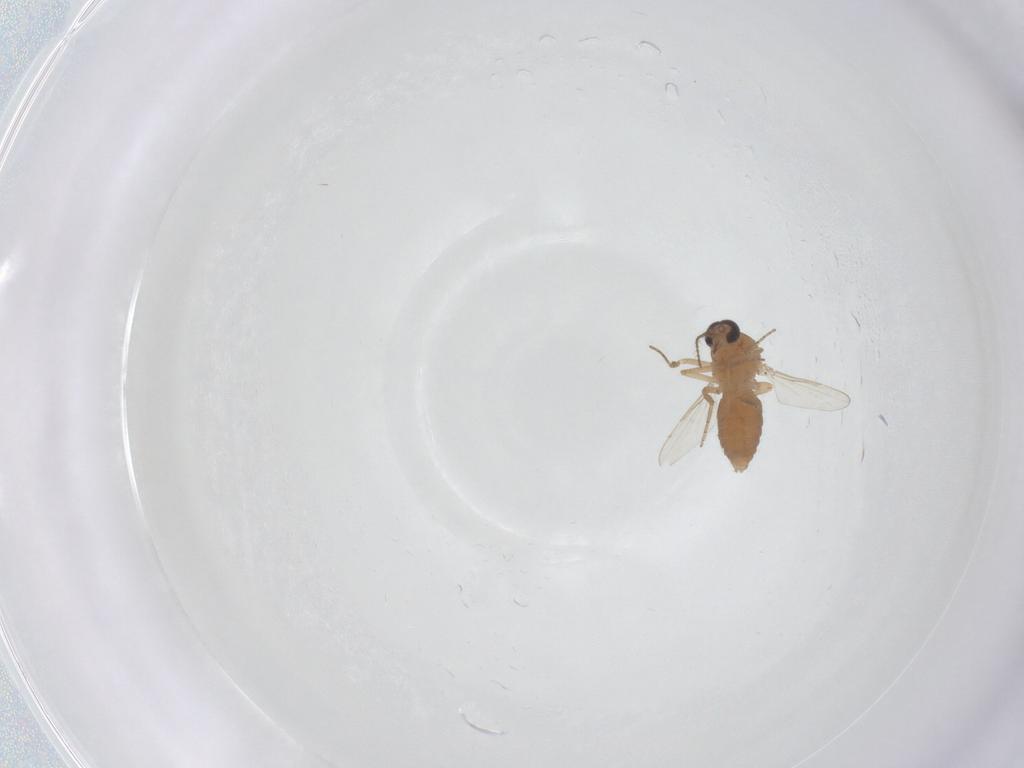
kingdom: Animalia
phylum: Arthropoda
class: Insecta
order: Diptera
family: Ceratopogonidae
